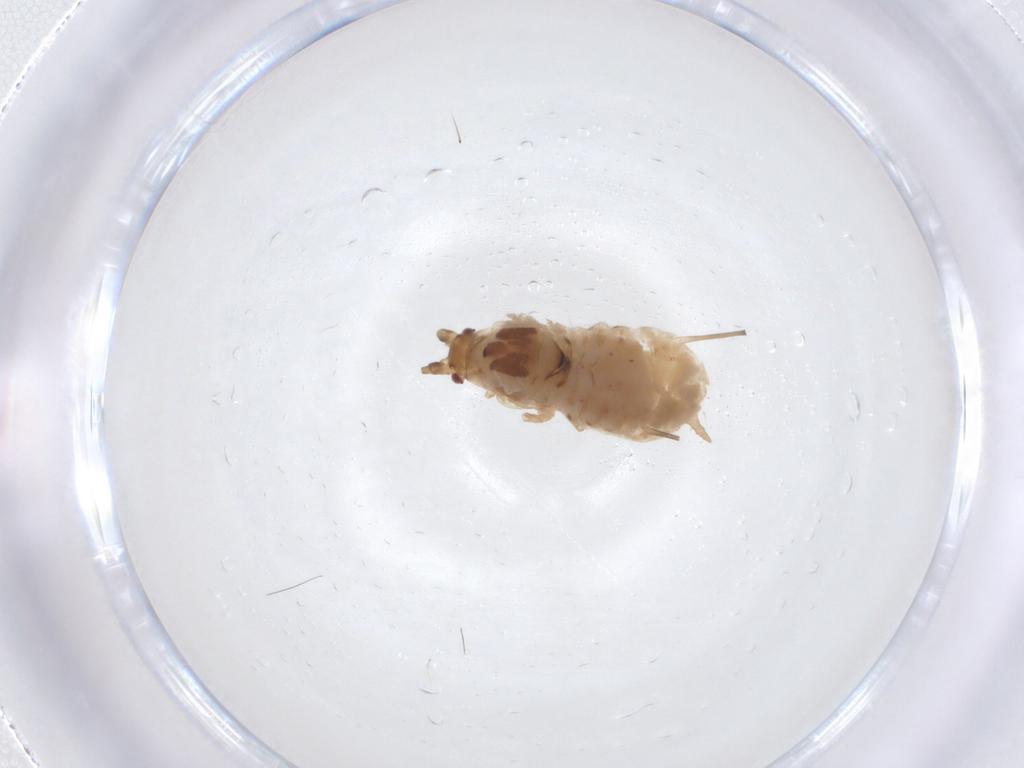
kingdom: Animalia
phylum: Arthropoda
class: Insecta
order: Hemiptera
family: Aphididae
